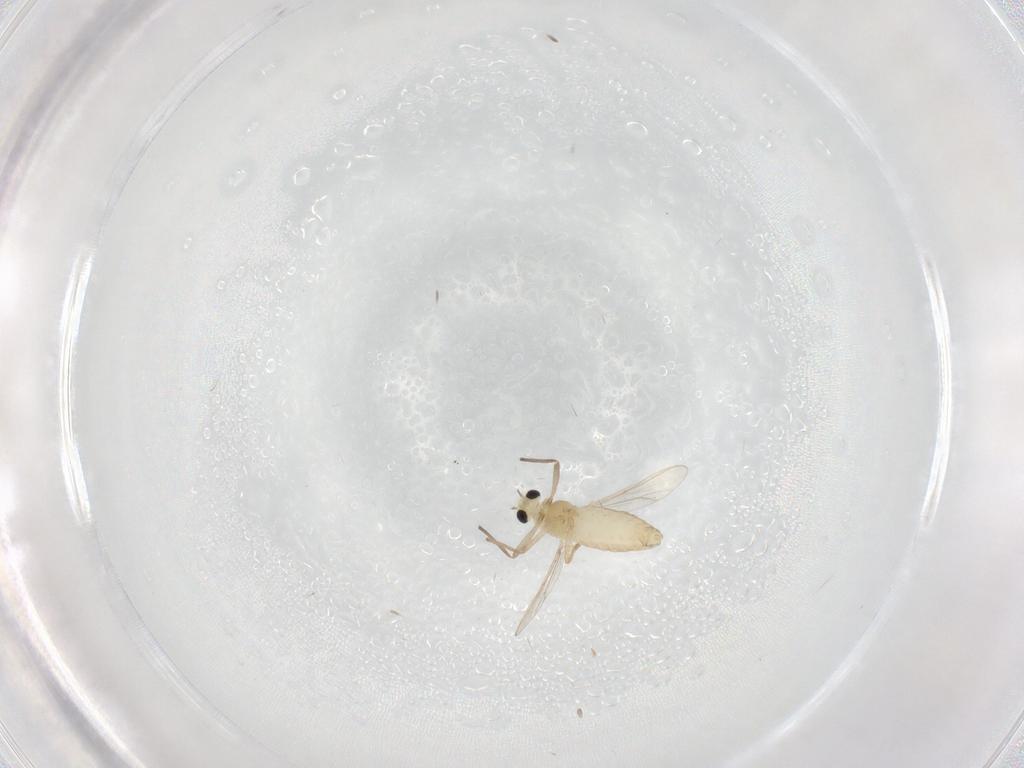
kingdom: Animalia
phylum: Arthropoda
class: Insecta
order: Diptera
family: Chironomidae
